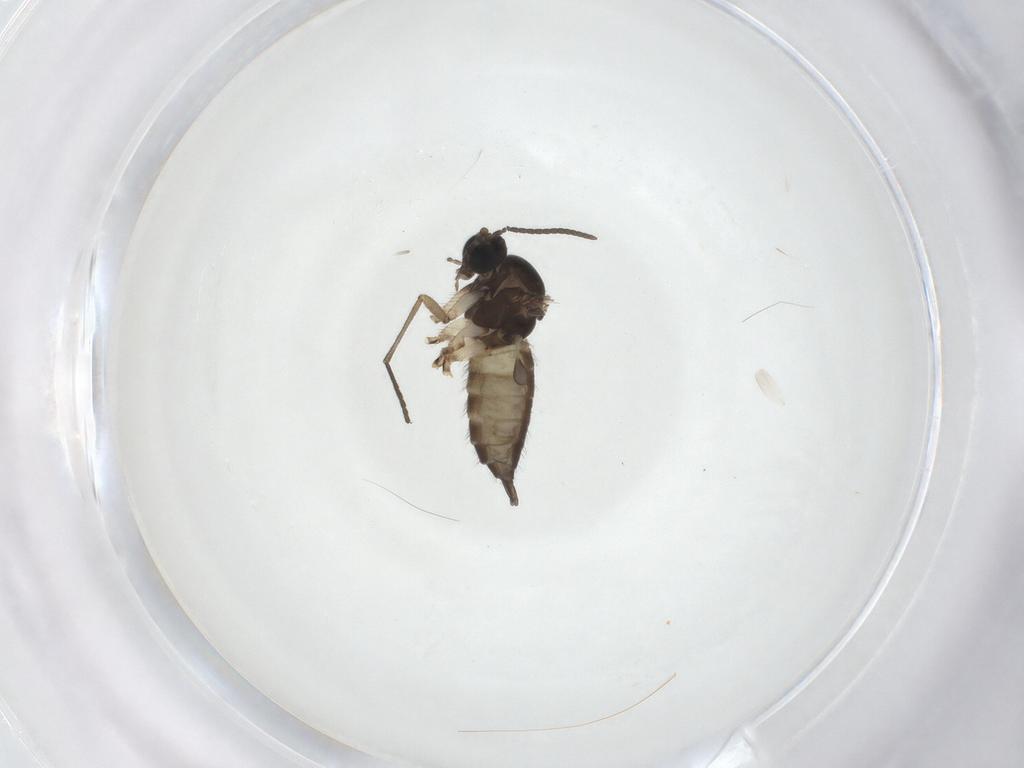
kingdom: Animalia
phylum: Arthropoda
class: Insecta
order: Diptera
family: Sciaridae
